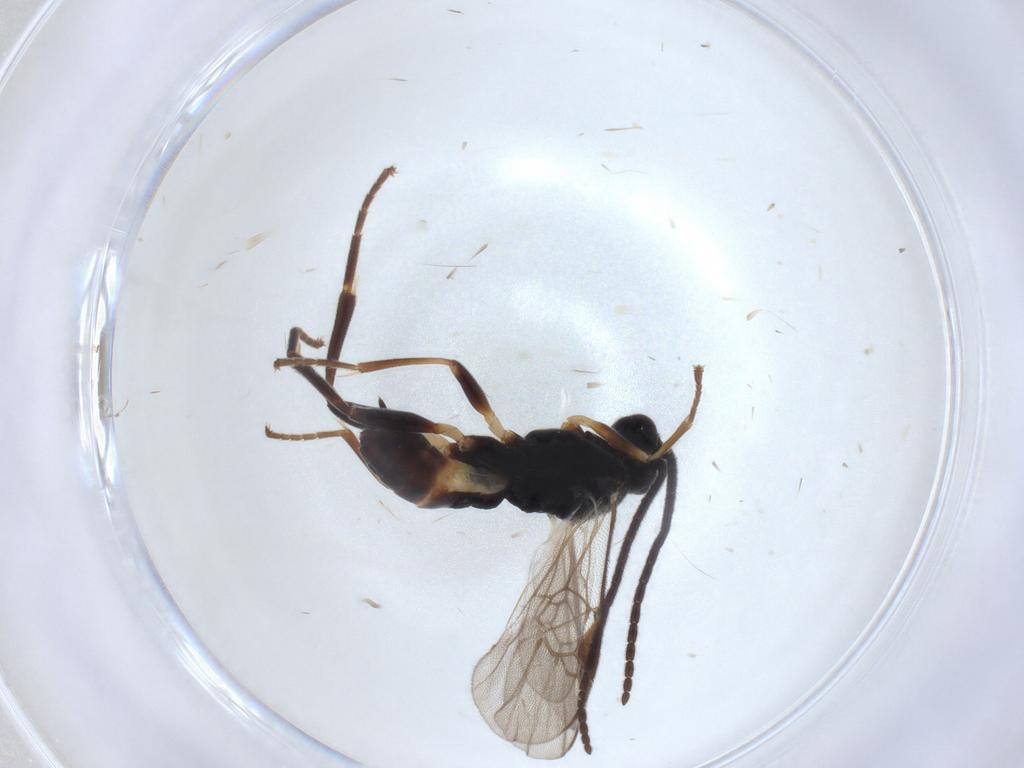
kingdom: Animalia
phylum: Arthropoda
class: Insecta
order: Hymenoptera
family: Braconidae
